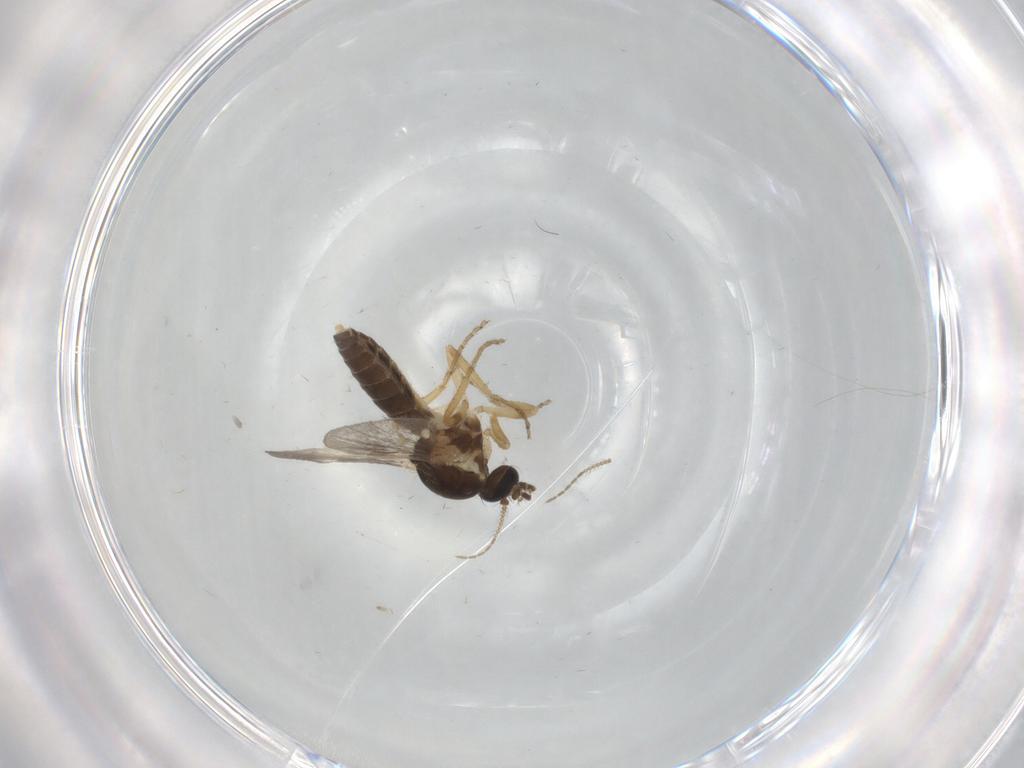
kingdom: Animalia
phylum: Arthropoda
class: Insecta
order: Diptera
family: Ceratopogonidae
